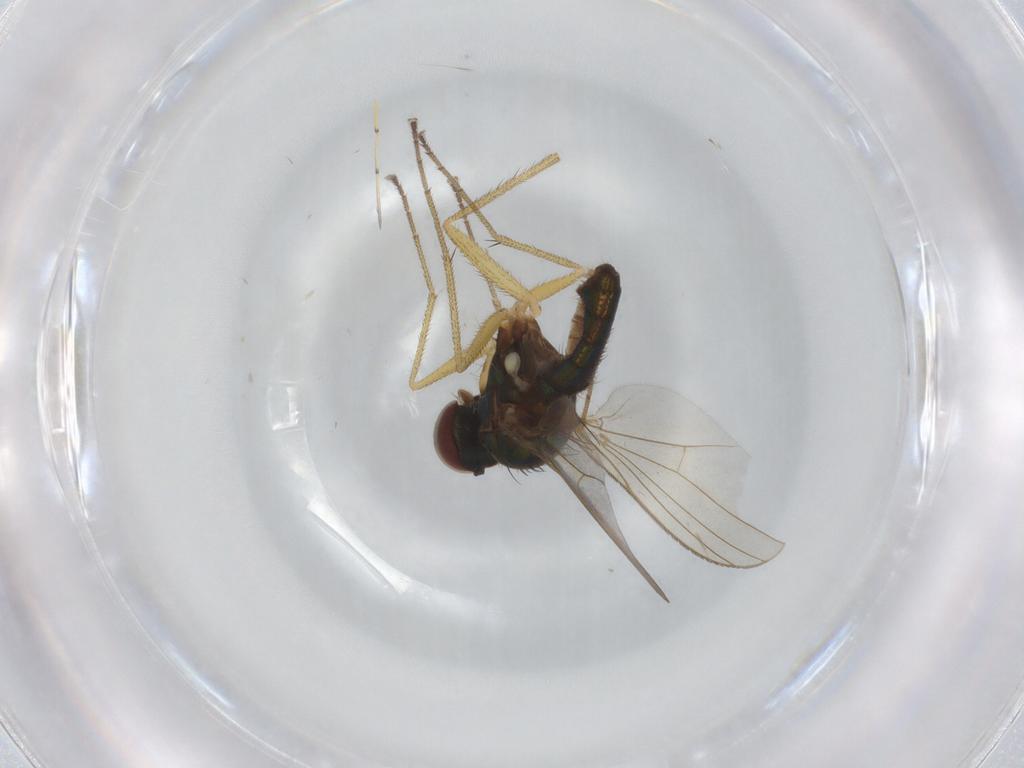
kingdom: Animalia
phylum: Arthropoda
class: Insecta
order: Diptera
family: Dolichopodidae
